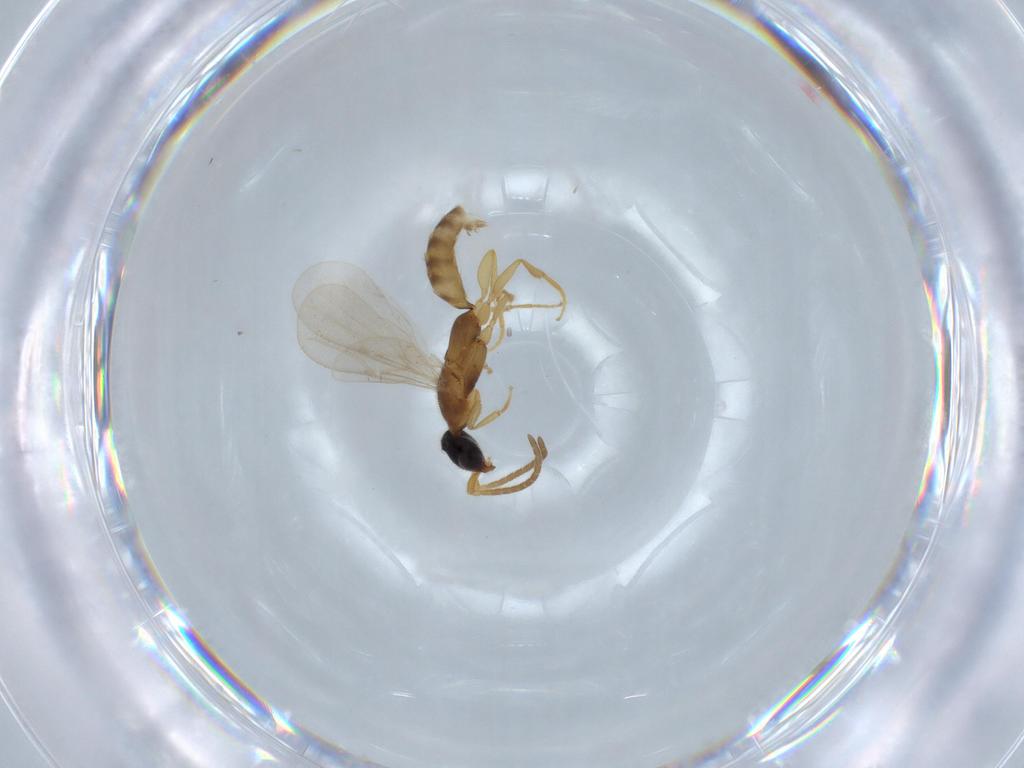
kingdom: Animalia
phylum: Arthropoda
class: Insecta
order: Hymenoptera
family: Bethylidae
